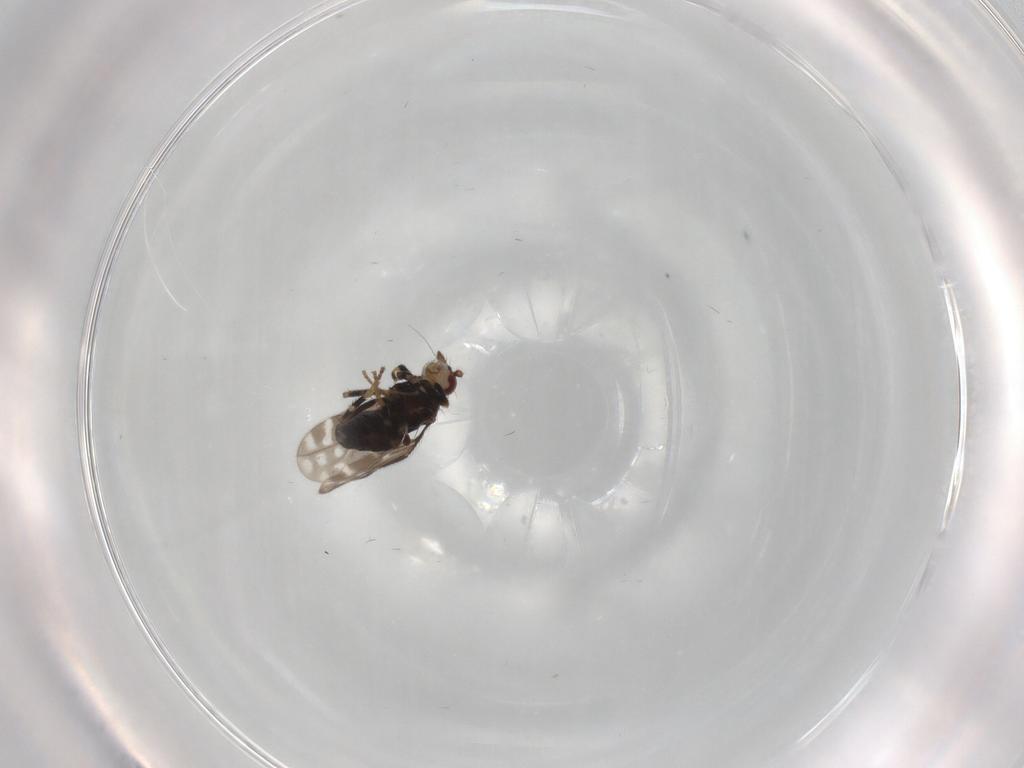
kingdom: Animalia
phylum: Arthropoda
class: Insecta
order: Diptera
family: Sphaeroceridae
